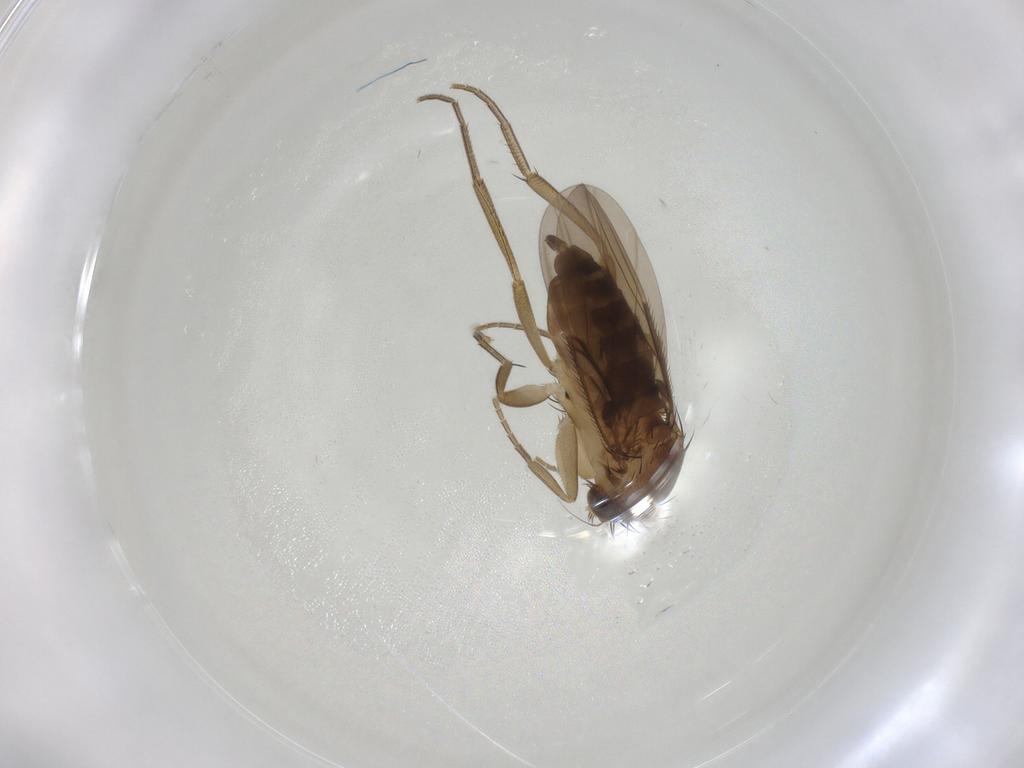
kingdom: Animalia
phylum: Arthropoda
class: Insecta
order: Diptera
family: Phoridae
